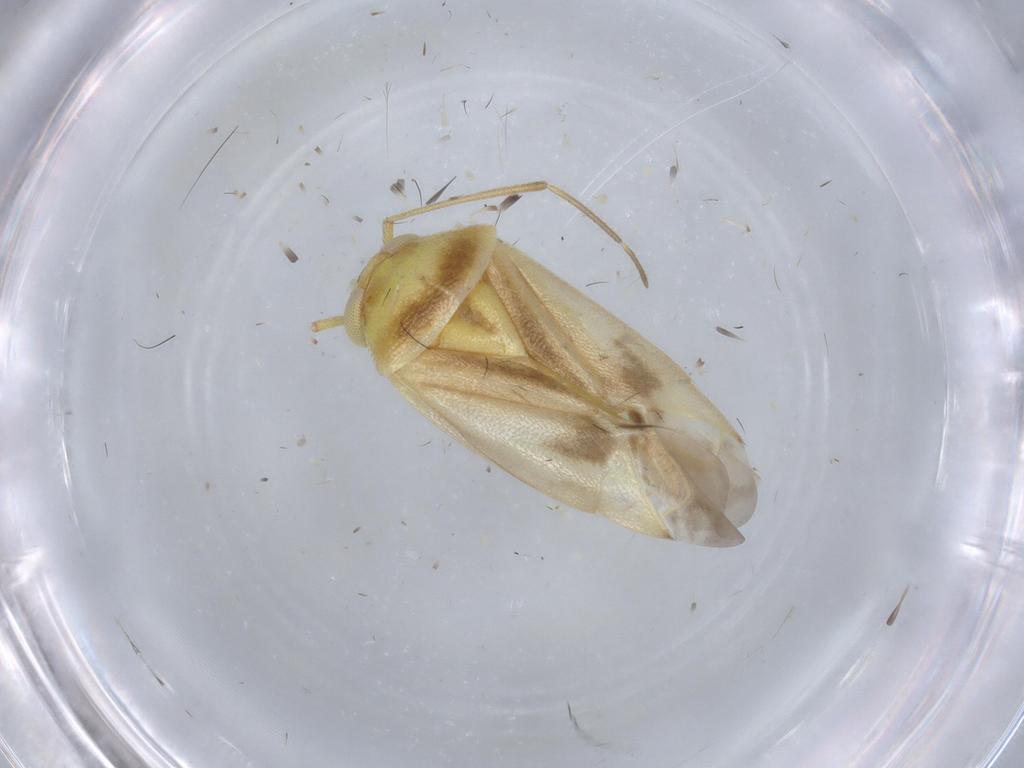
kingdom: Animalia
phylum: Arthropoda
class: Insecta
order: Hemiptera
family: Miridae
